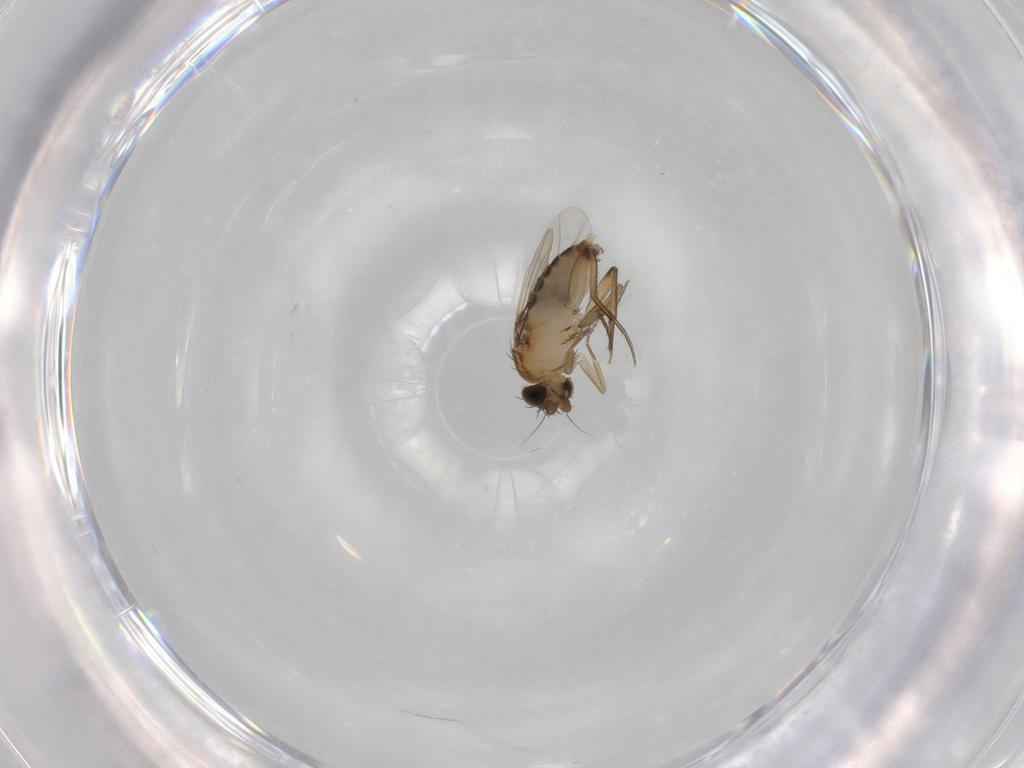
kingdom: Animalia
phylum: Arthropoda
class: Insecta
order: Diptera
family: Phoridae
